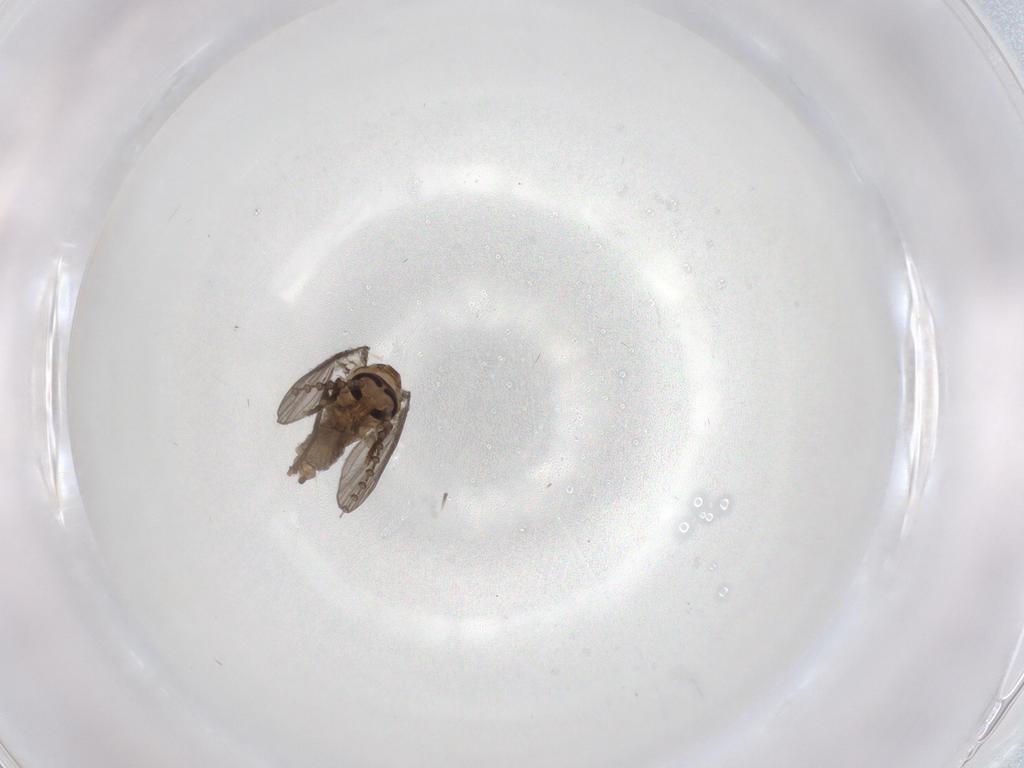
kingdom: Animalia
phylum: Arthropoda
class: Insecta
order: Diptera
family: Psychodidae
